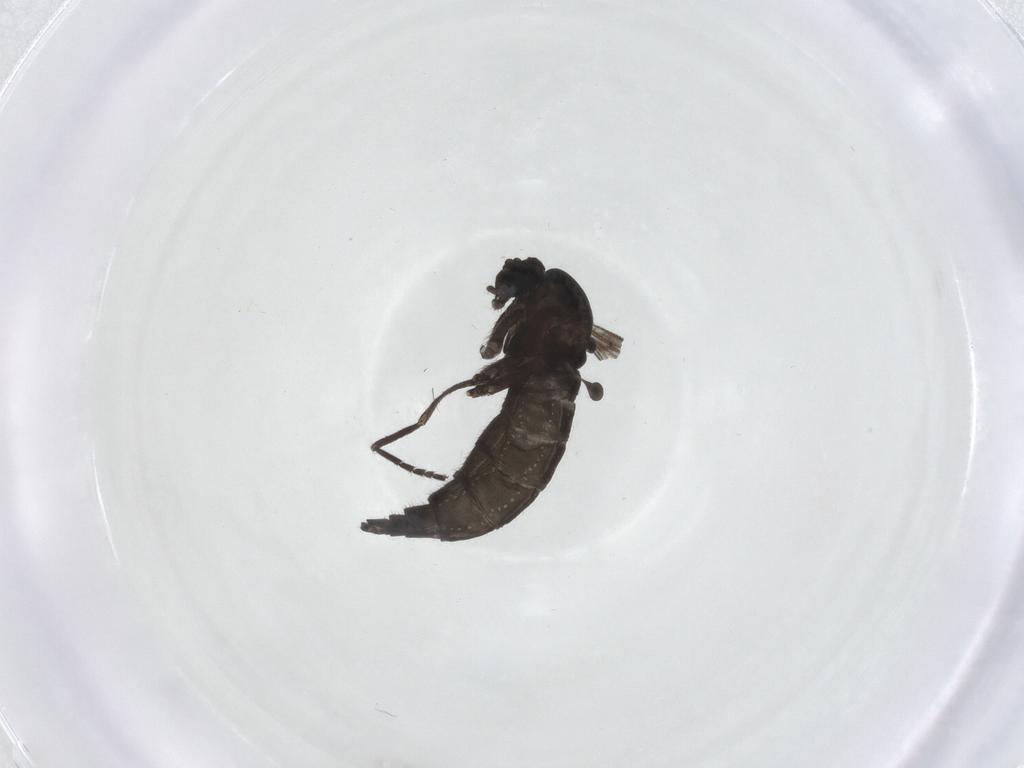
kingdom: Animalia
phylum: Arthropoda
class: Insecta
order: Diptera
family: Sciaridae
